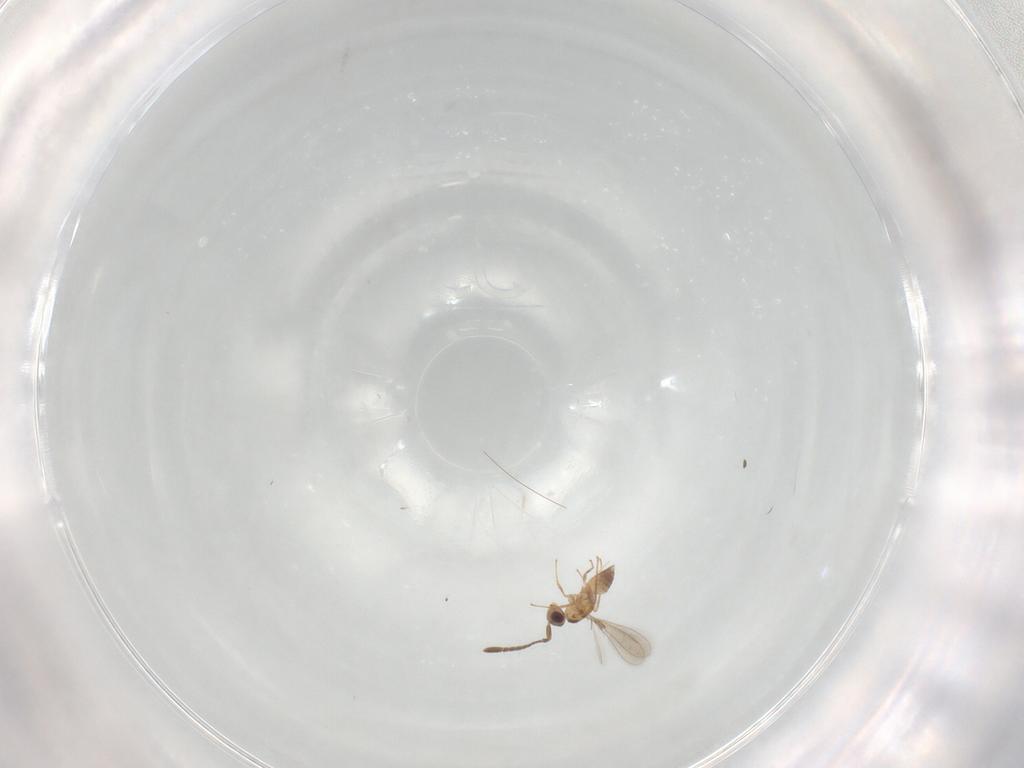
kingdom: Animalia
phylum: Arthropoda
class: Insecta
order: Hymenoptera
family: Mymaridae
